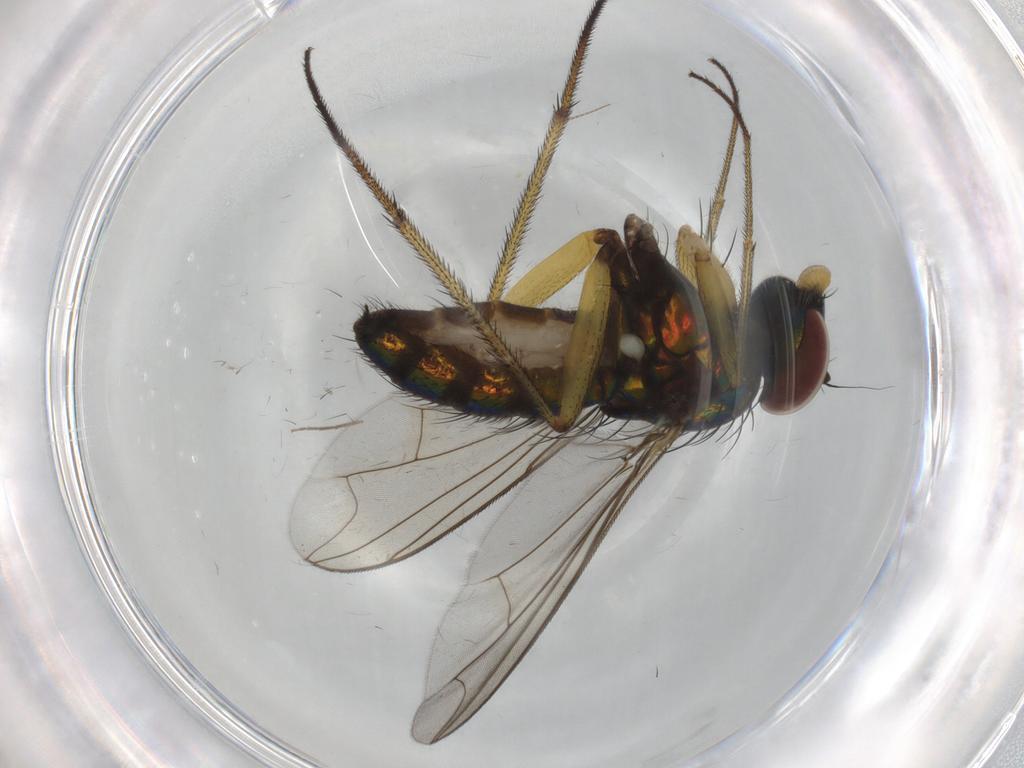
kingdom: Animalia
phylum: Arthropoda
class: Insecta
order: Diptera
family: Dolichopodidae
